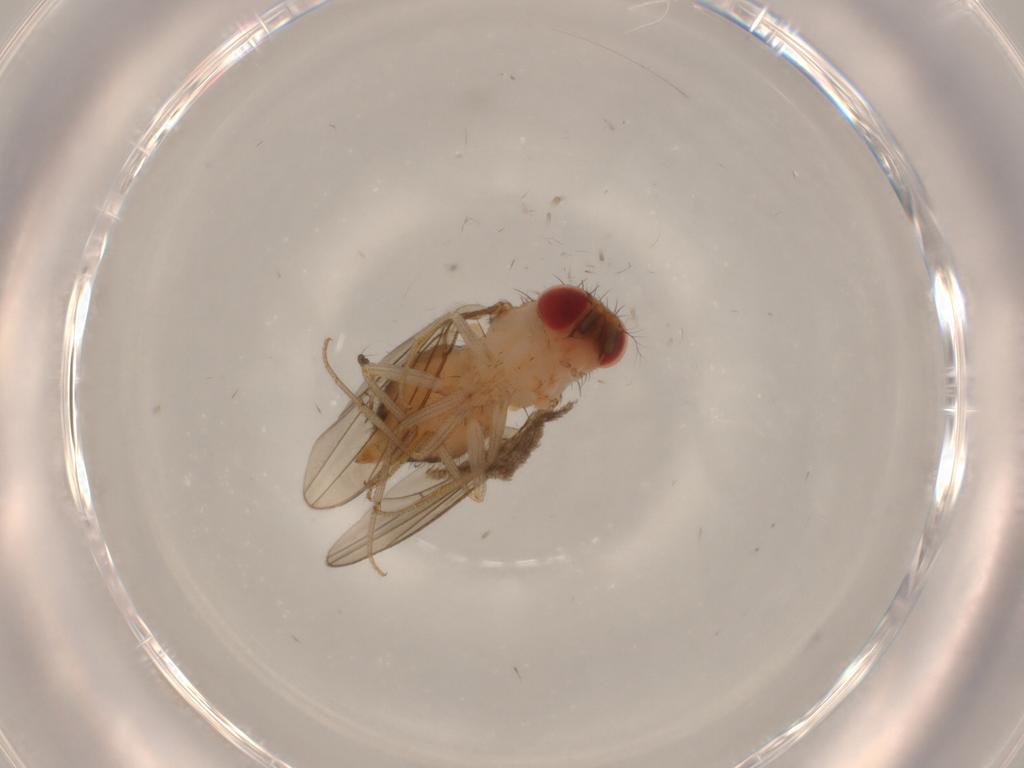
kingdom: Animalia
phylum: Arthropoda
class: Insecta
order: Diptera
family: Drosophilidae
